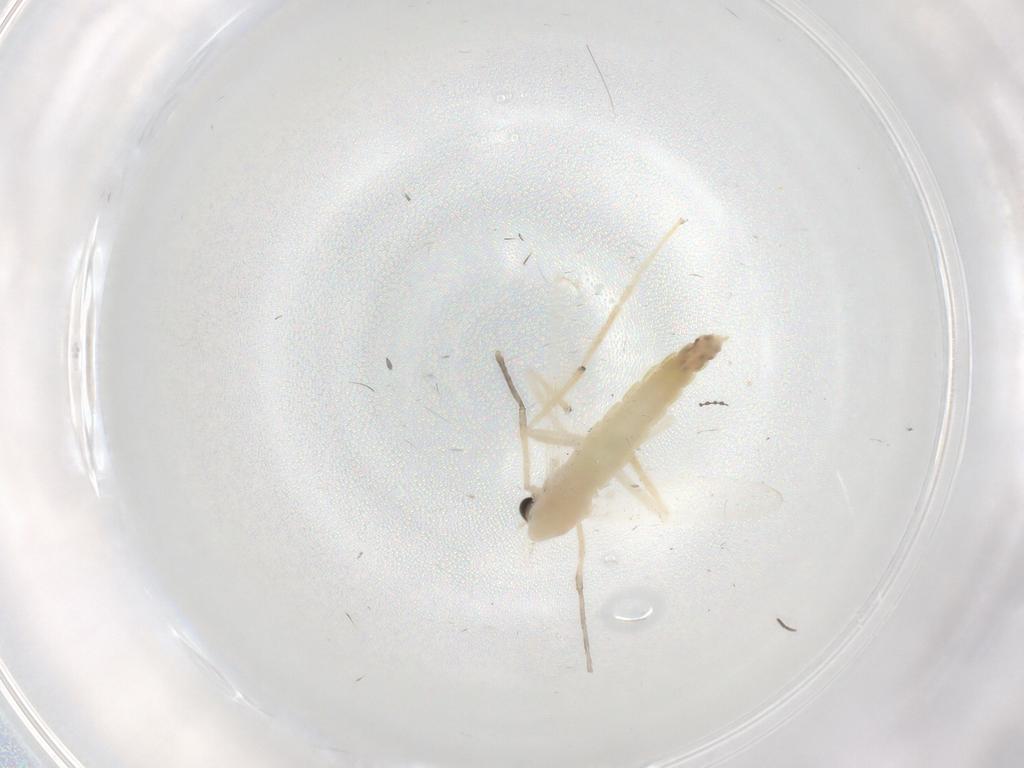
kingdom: Animalia
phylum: Arthropoda
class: Insecta
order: Diptera
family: Chironomidae
